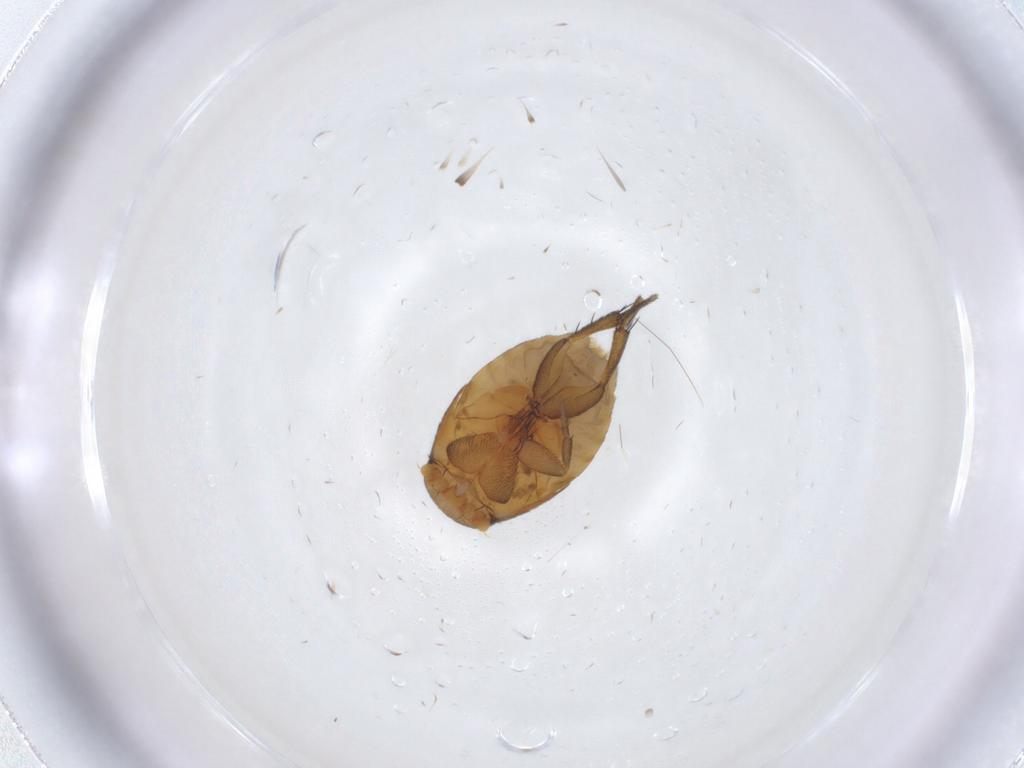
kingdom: Animalia
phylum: Arthropoda
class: Insecta
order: Diptera
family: Phoridae
